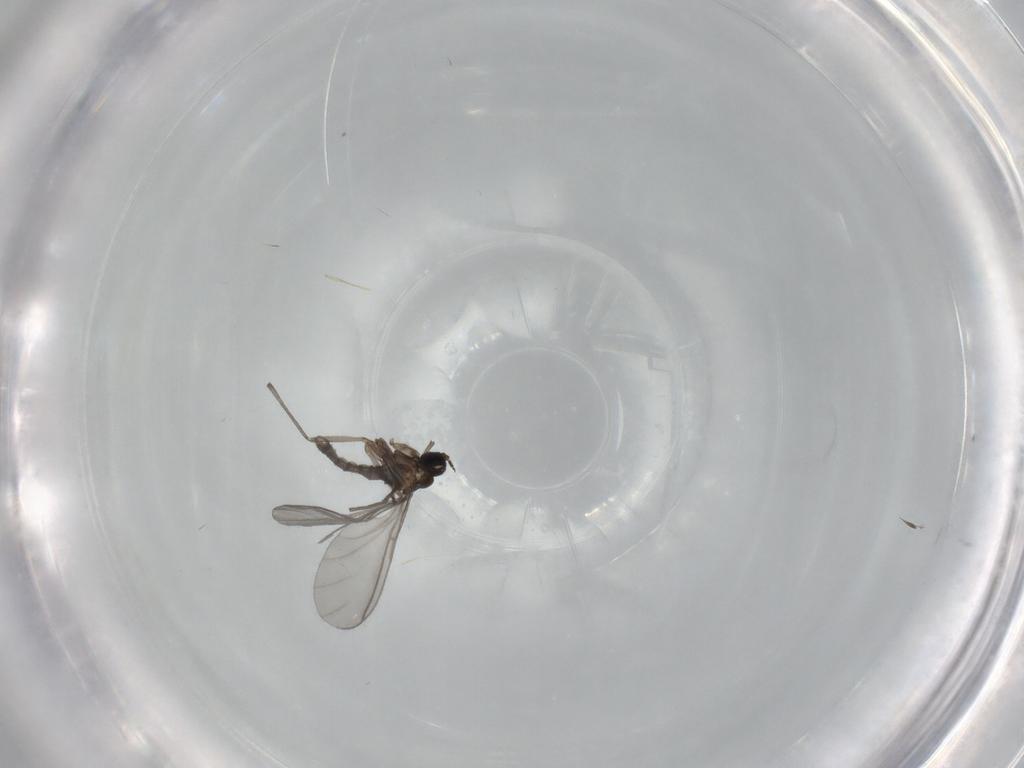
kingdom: Animalia
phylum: Arthropoda
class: Insecta
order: Diptera
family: Sciaridae
